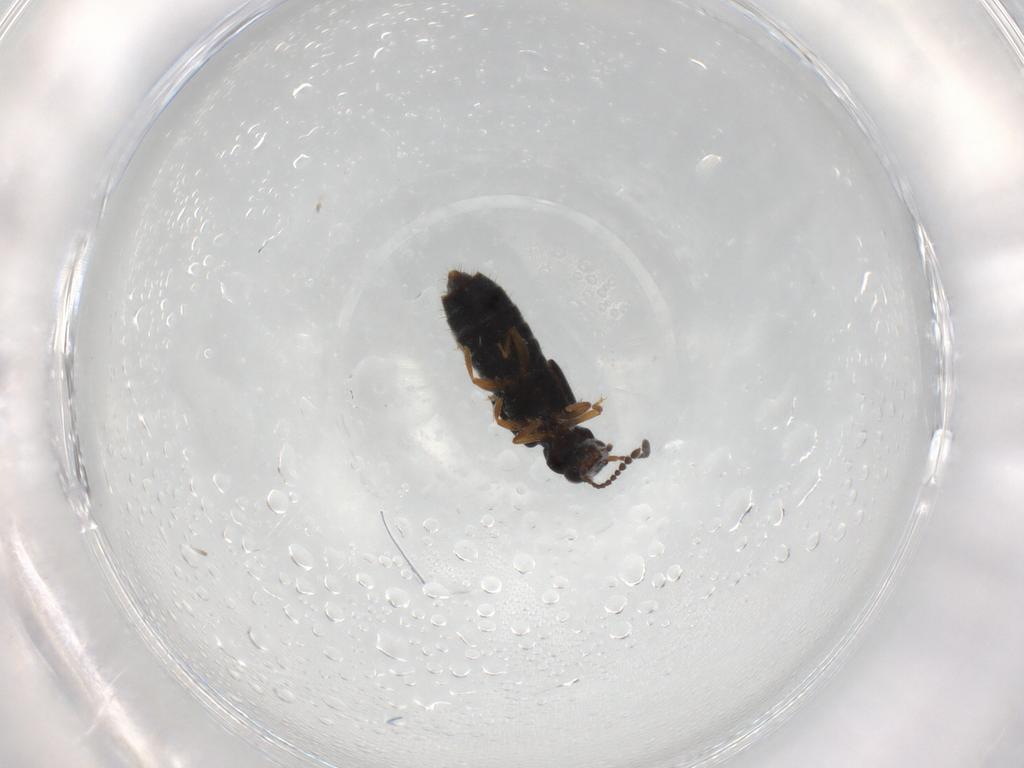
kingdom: Animalia
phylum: Arthropoda
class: Insecta
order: Coleoptera
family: Staphylinidae
